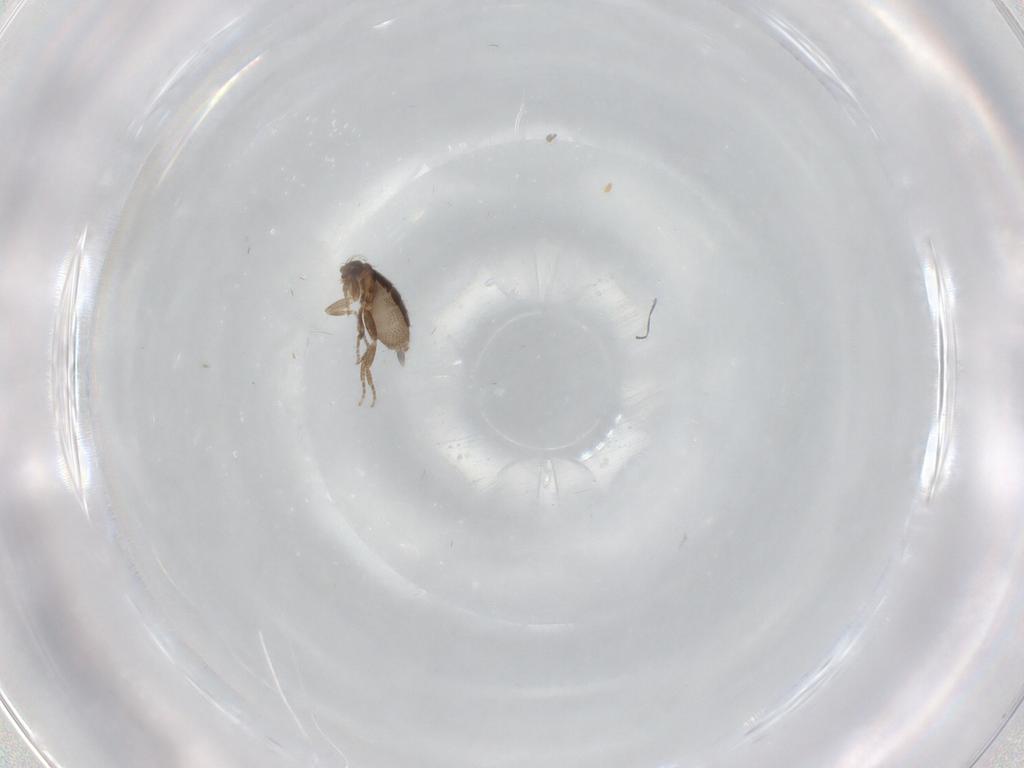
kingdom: Animalia
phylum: Arthropoda
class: Insecta
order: Diptera
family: Phoridae
